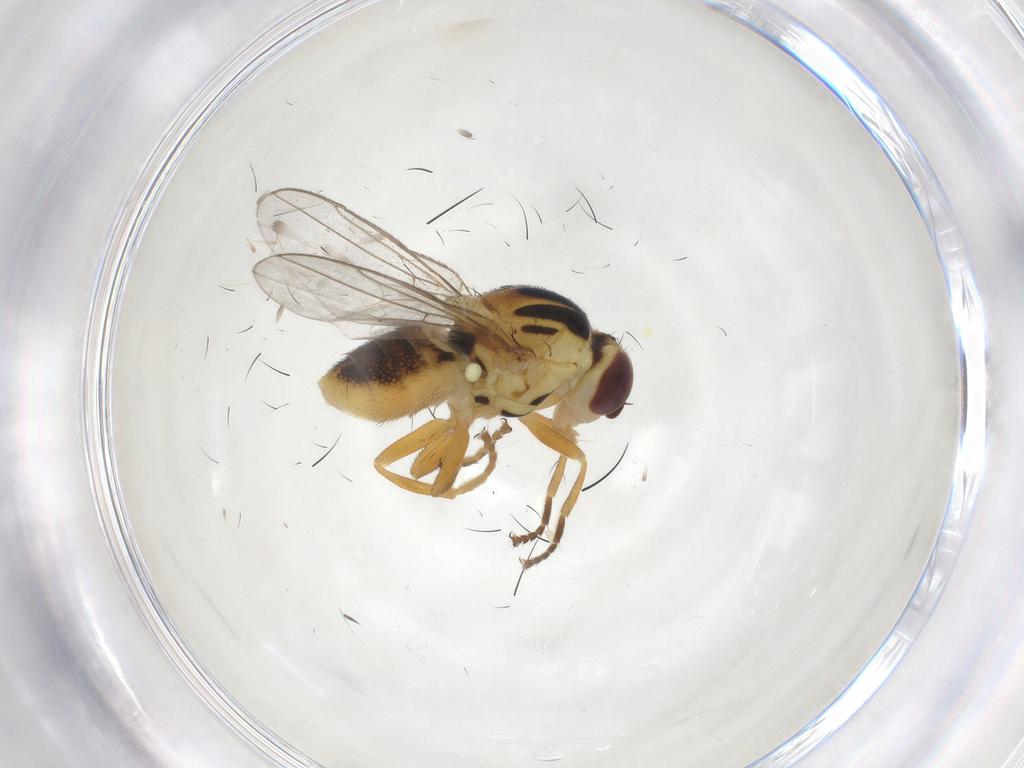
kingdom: Animalia
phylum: Arthropoda
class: Insecta
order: Diptera
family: Chloropidae
